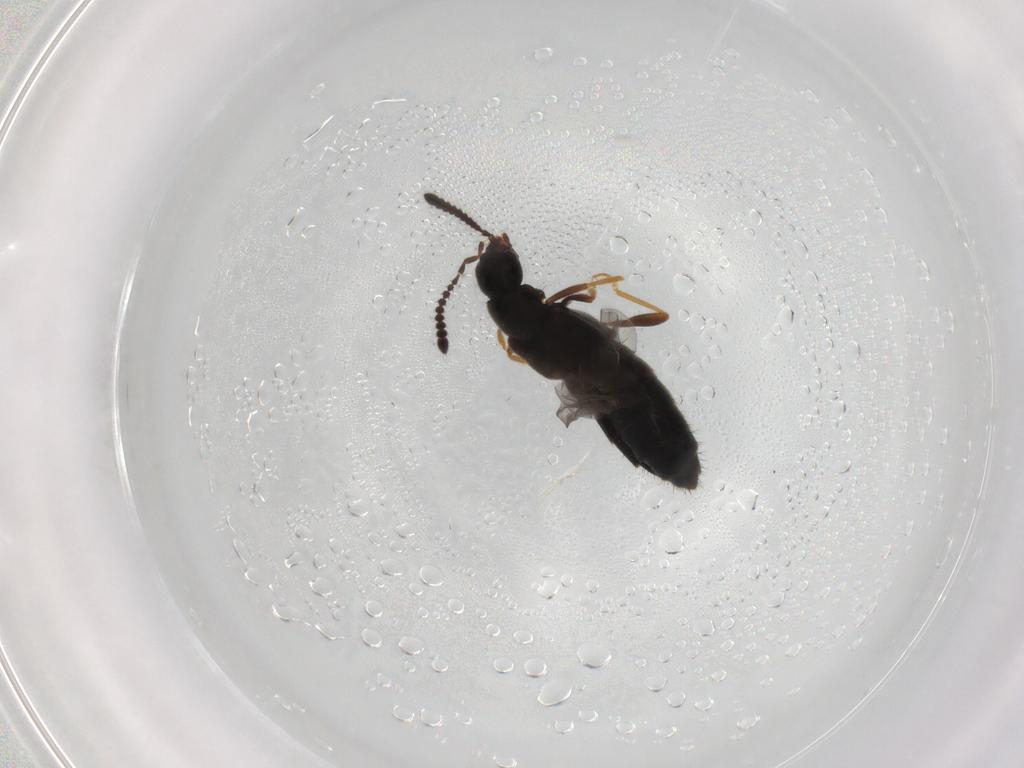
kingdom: Animalia
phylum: Arthropoda
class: Insecta
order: Coleoptera
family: Staphylinidae
